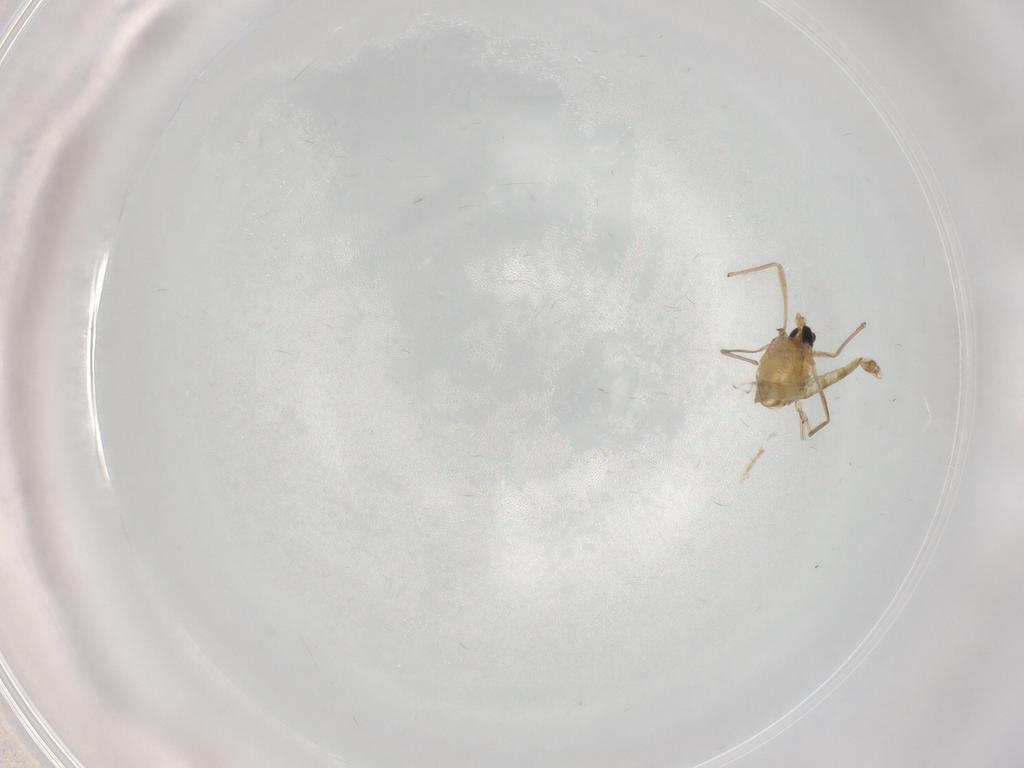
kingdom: Animalia
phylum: Arthropoda
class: Insecta
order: Diptera
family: Chironomidae
